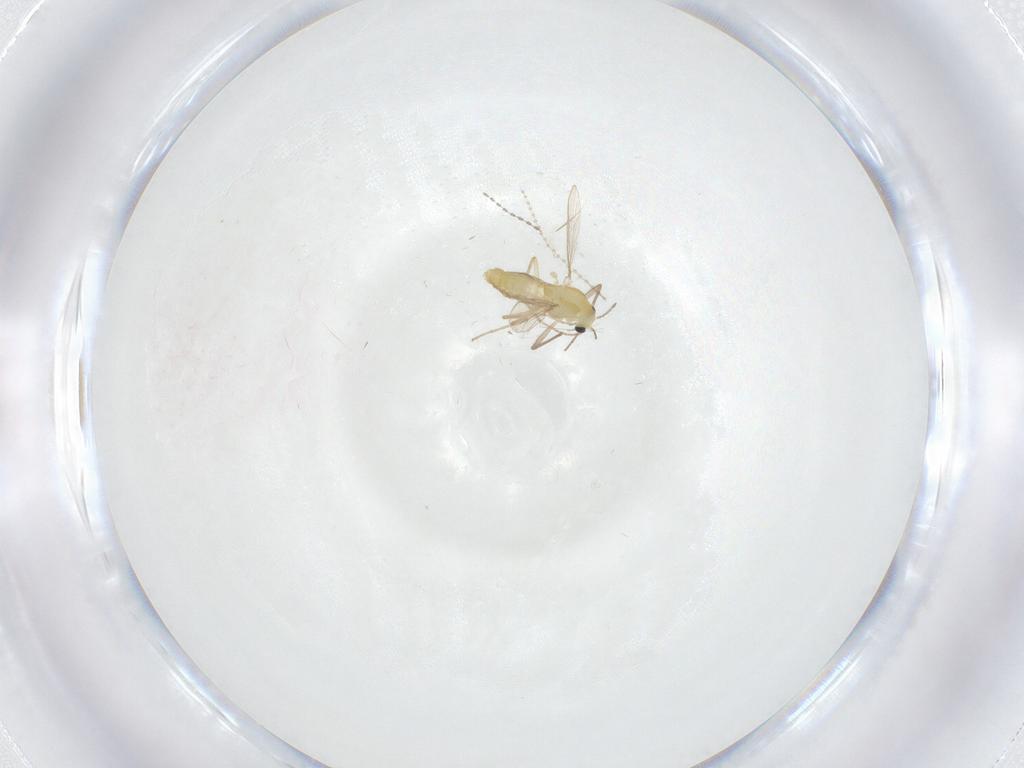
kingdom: Animalia
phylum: Arthropoda
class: Insecta
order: Diptera
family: Chironomidae
